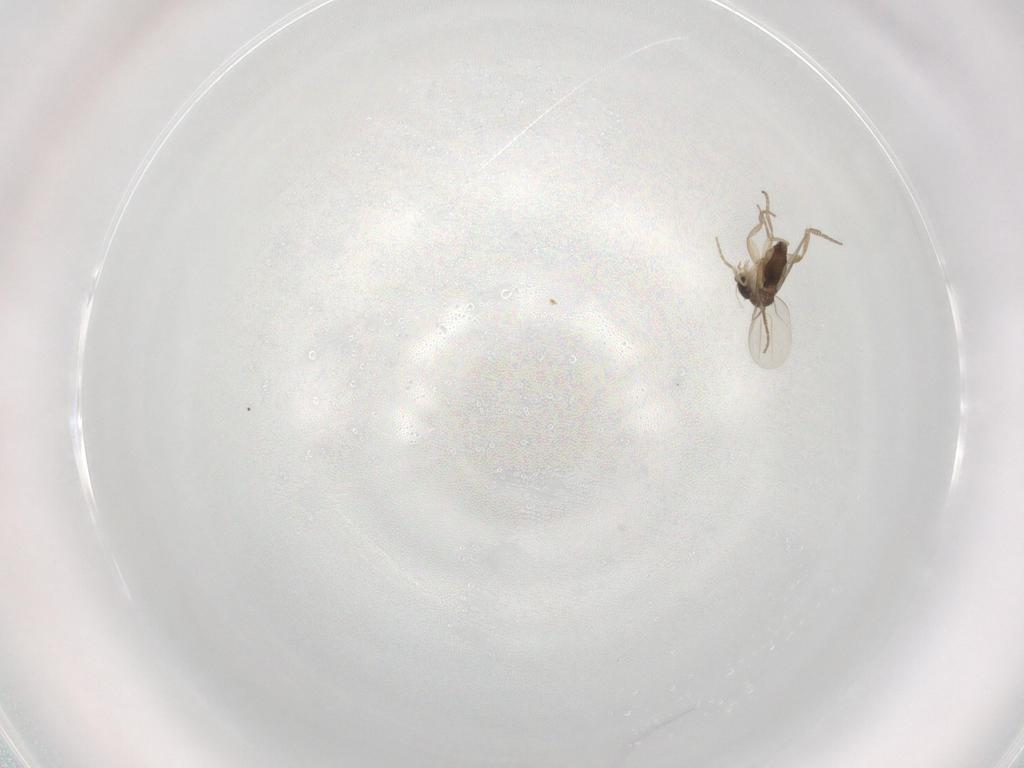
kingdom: Animalia
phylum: Arthropoda
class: Insecta
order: Diptera
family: Phoridae
